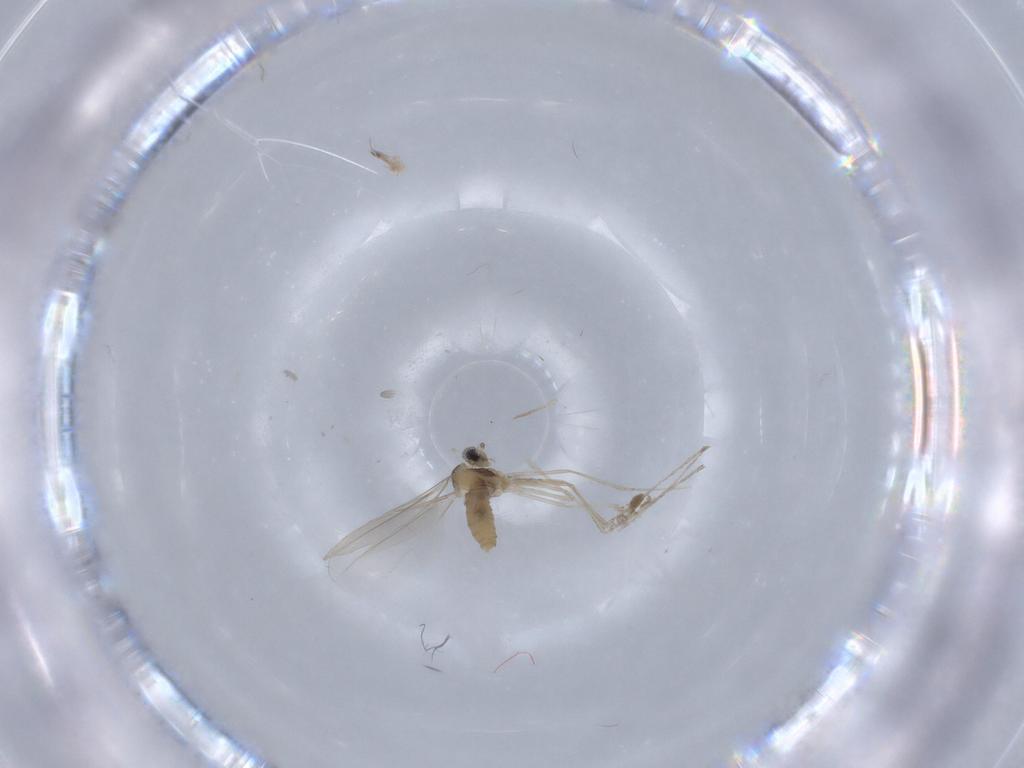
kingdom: Animalia
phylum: Arthropoda
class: Insecta
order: Diptera
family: Cecidomyiidae
